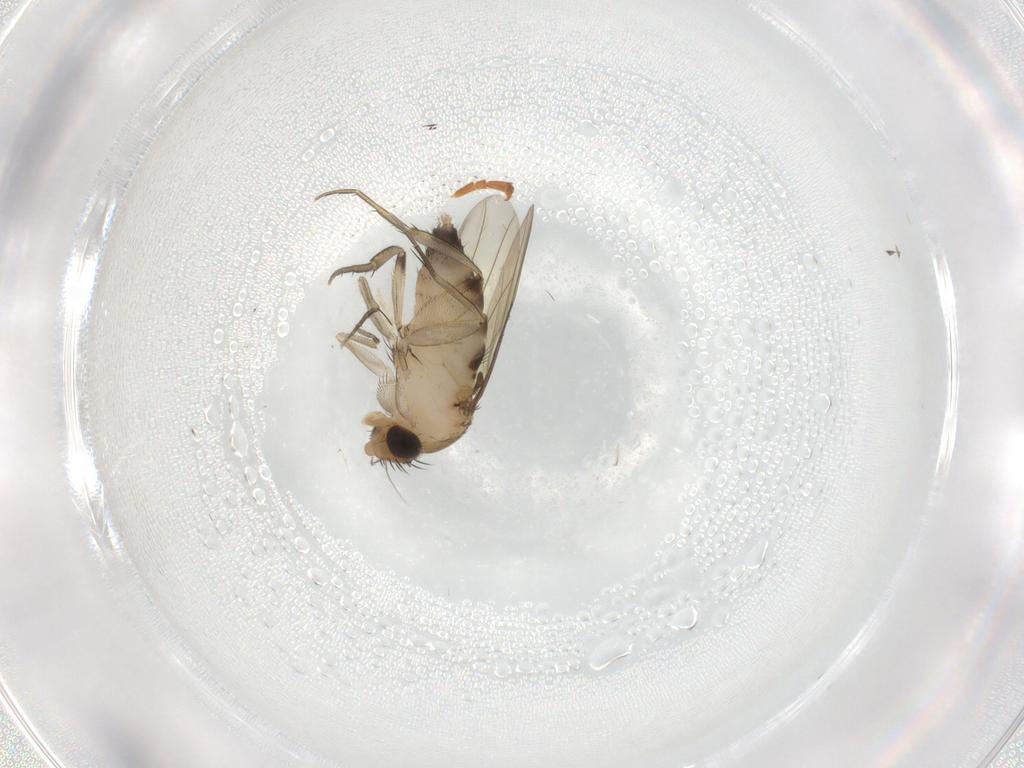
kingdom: Animalia
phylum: Arthropoda
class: Insecta
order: Diptera
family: Phoridae
